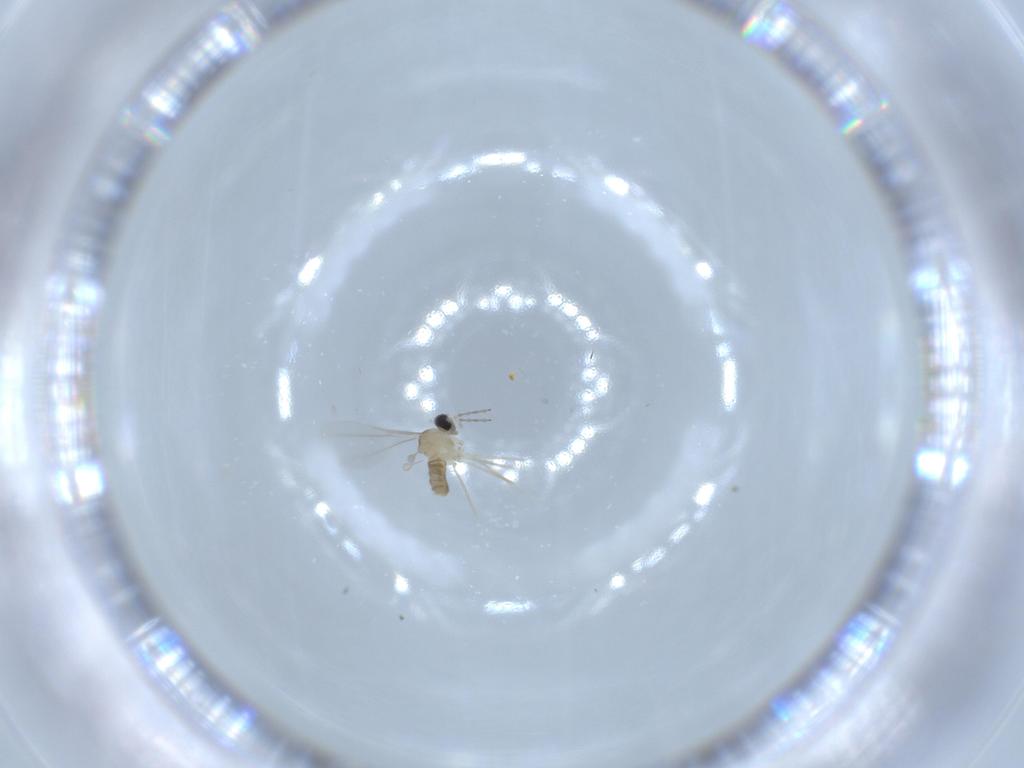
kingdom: Animalia
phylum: Arthropoda
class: Insecta
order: Diptera
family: Cecidomyiidae
